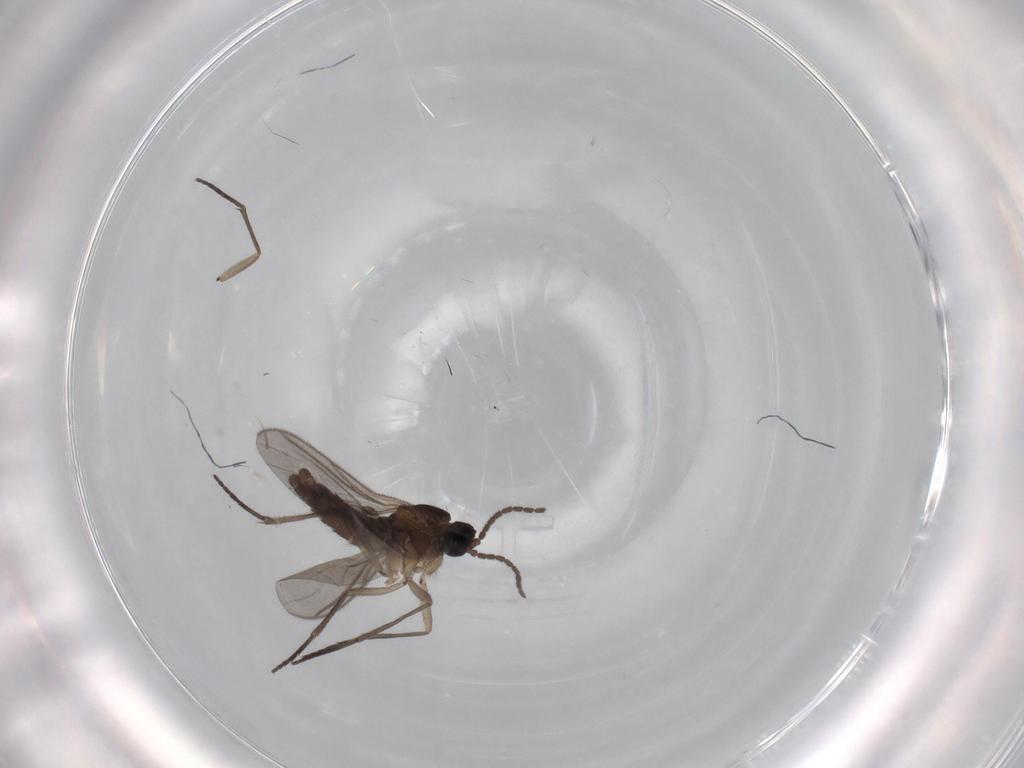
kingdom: Animalia
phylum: Arthropoda
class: Insecta
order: Diptera
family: Sciaridae
